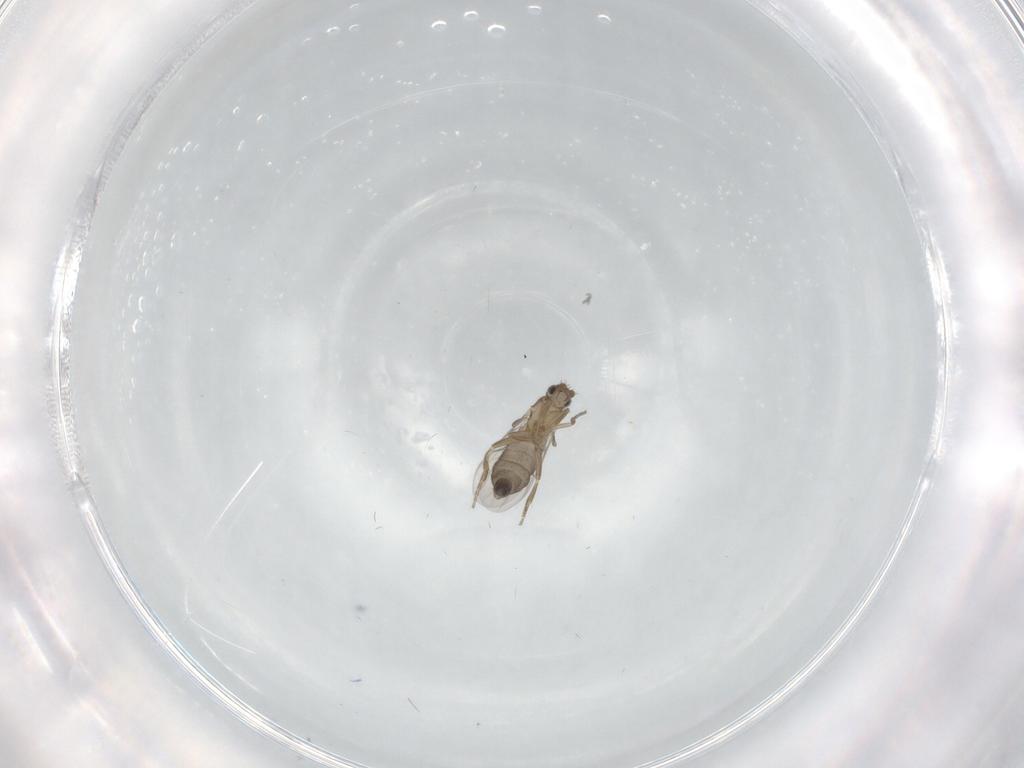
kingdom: Animalia
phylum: Arthropoda
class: Insecta
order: Diptera
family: Phoridae
